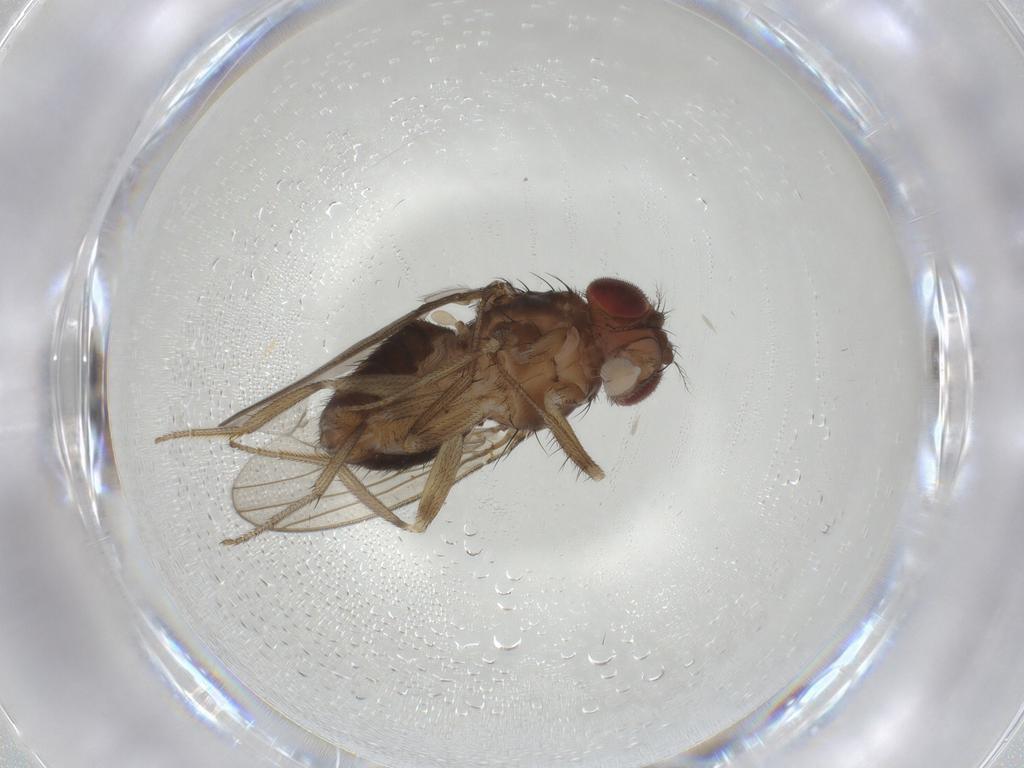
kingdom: Animalia
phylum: Arthropoda
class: Insecta
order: Diptera
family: Drosophilidae
